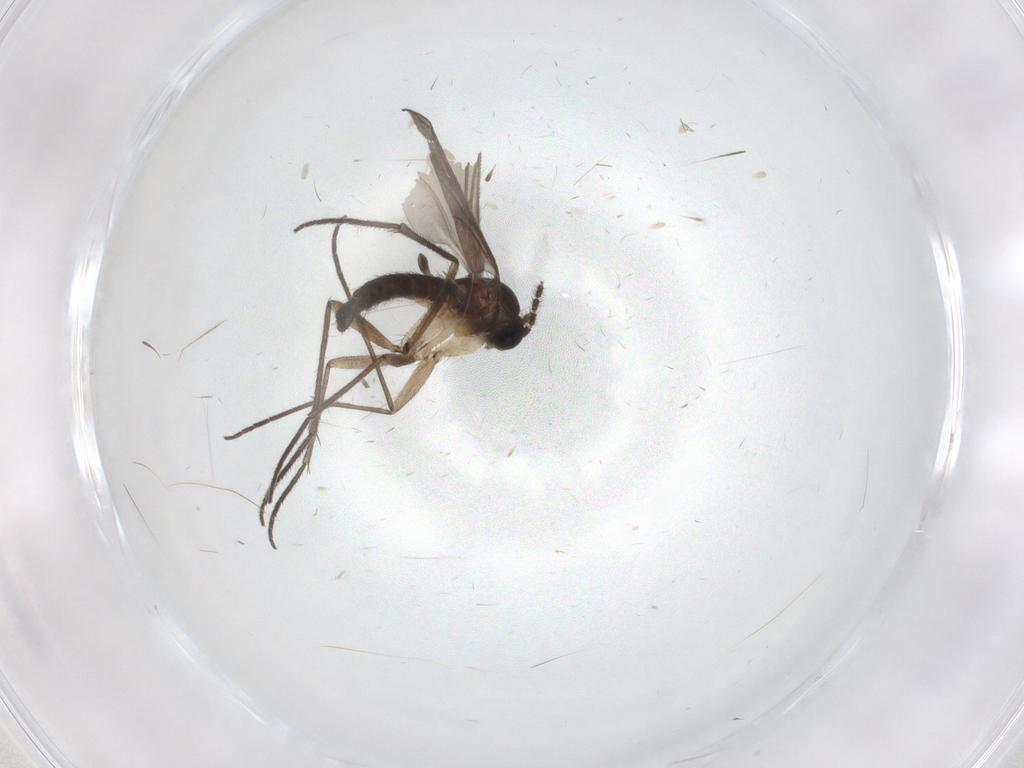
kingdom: Animalia
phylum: Arthropoda
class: Insecta
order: Diptera
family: Sciaridae
